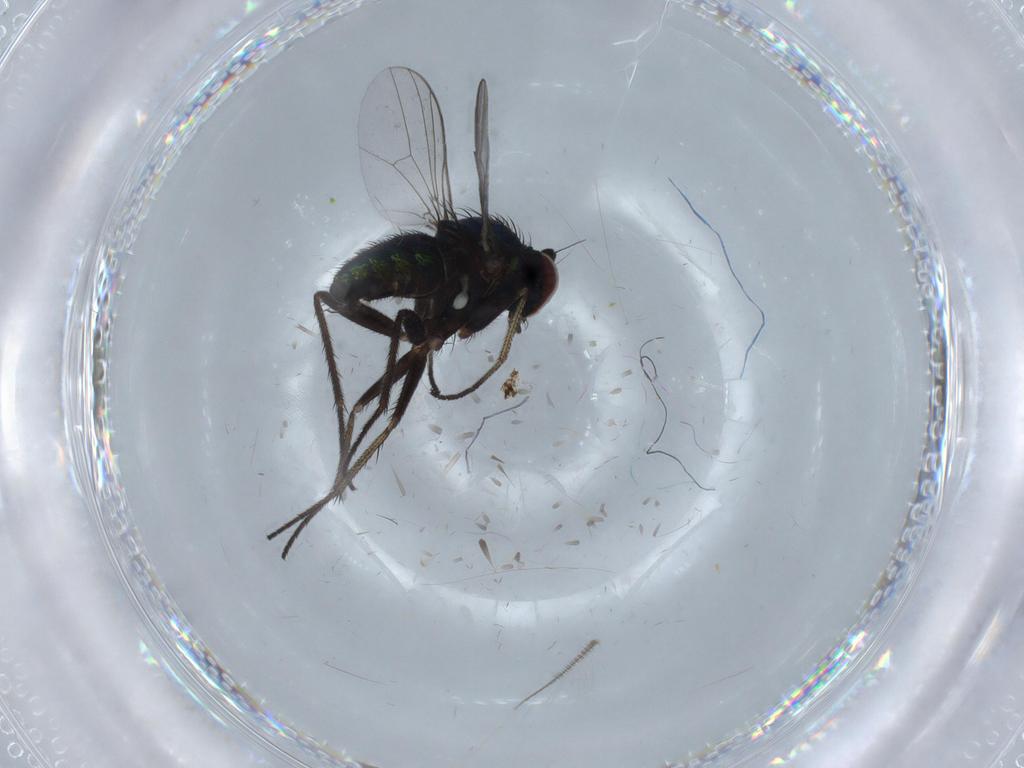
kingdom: Animalia
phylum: Arthropoda
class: Insecta
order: Diptera
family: Dolichopodidae
